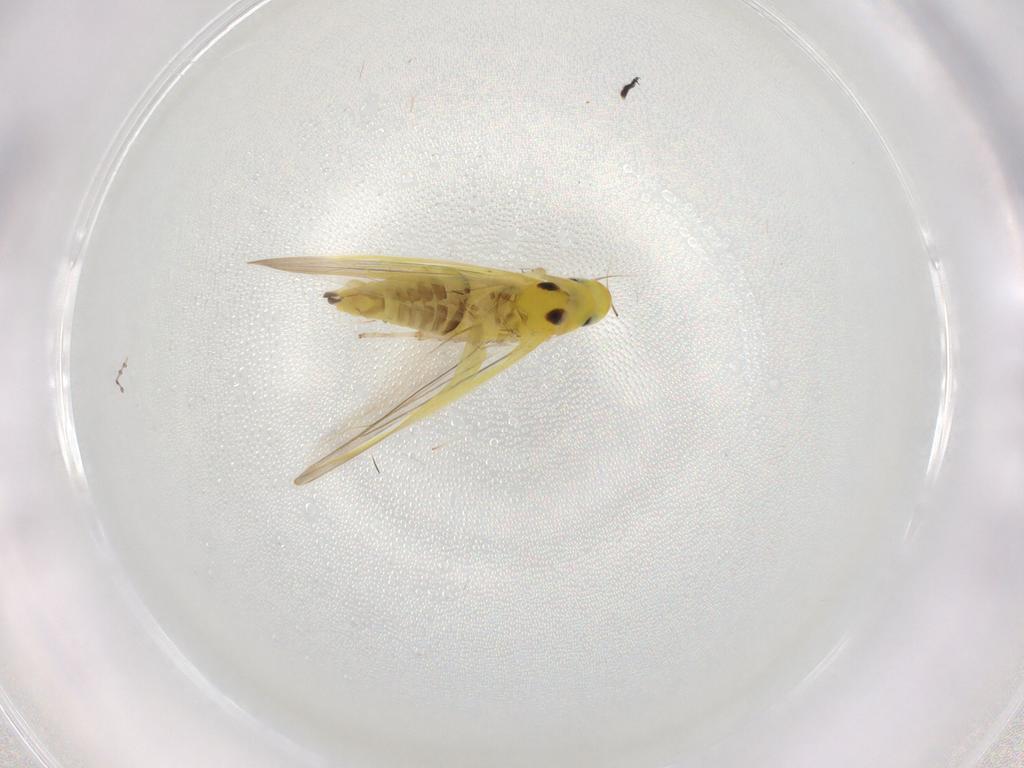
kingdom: Animalia
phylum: Arthropoda
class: Insecta
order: Hemiptera
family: Cicadellidae
